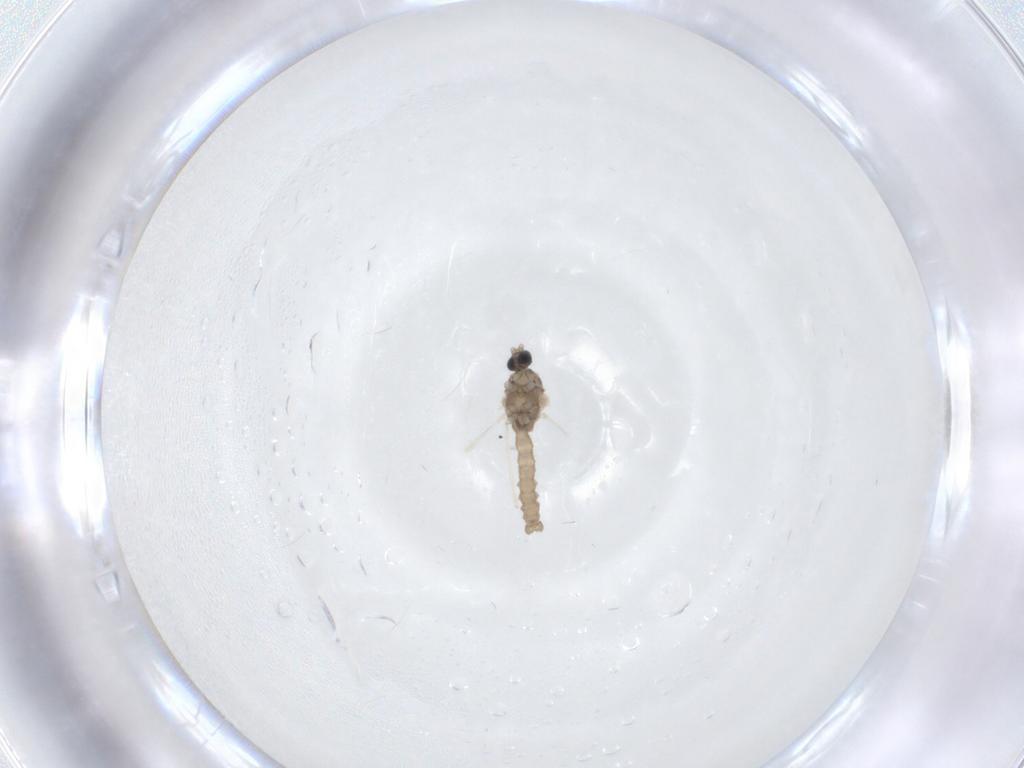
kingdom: Animalia
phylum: Arthropoda
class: Insecta
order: Diptera
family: Cecidomyiidae
